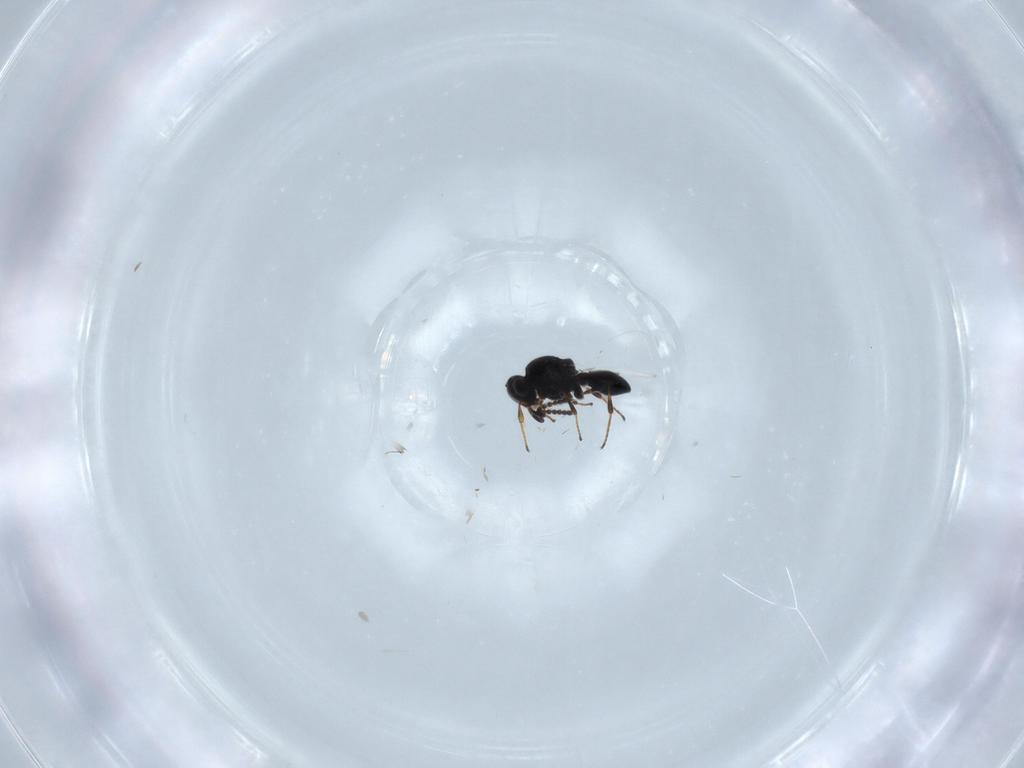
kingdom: Animalia
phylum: Arthropoda
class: Insecta
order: Hymenoptera
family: Platygastridae
